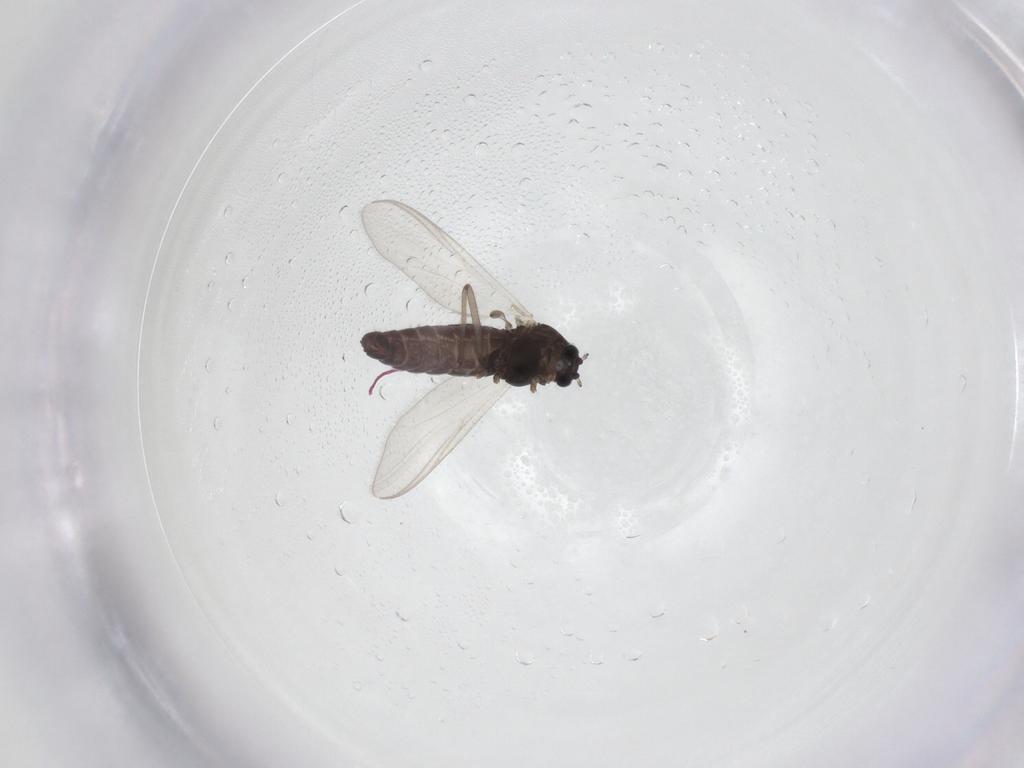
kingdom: Animalia
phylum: Arthropoda
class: Insecta
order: Diptera
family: Chironomidae
